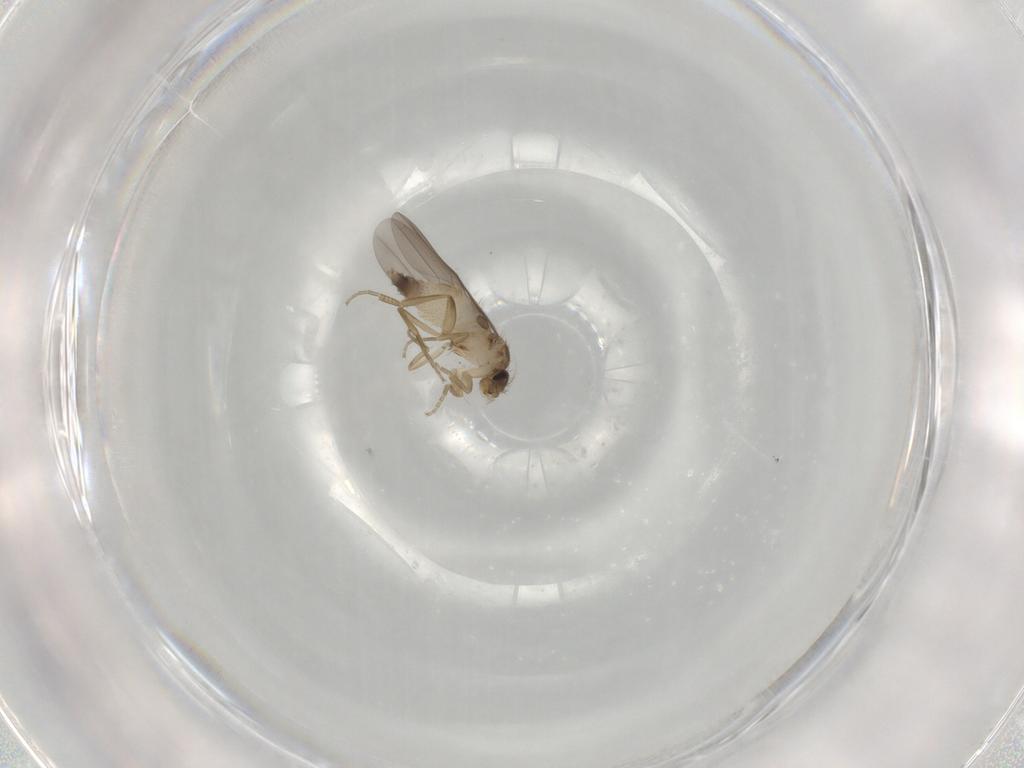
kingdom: Animalia
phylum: Arthropoda
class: Insecta
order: Diptera
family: Phoridae
